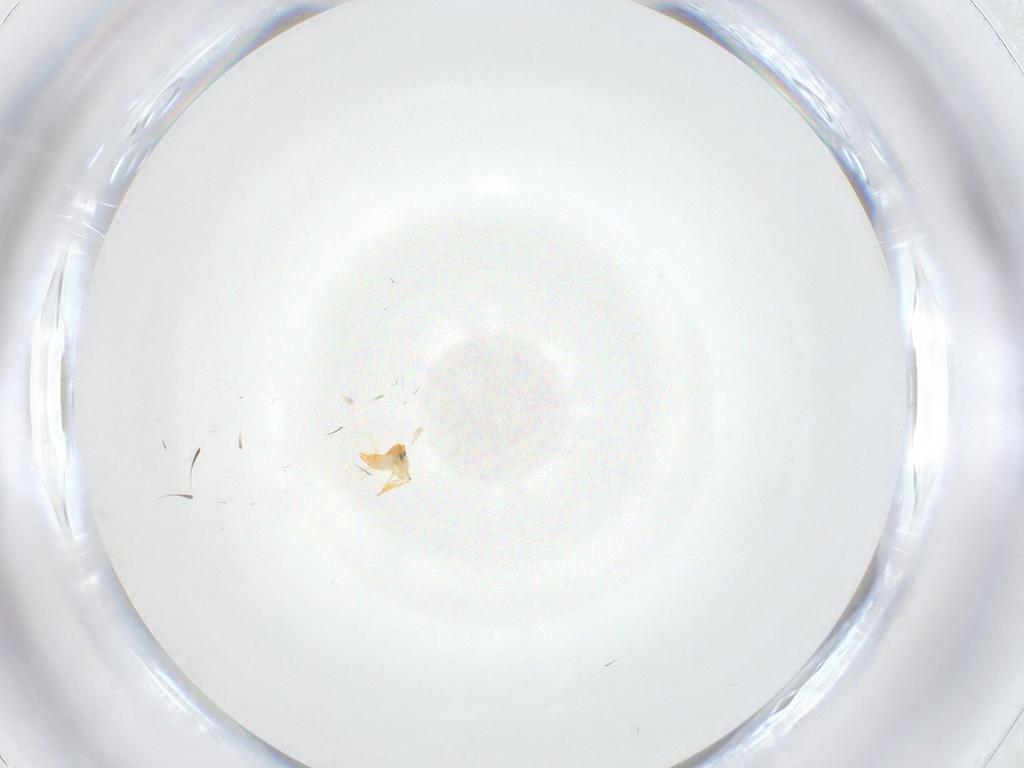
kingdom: Animalia
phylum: Arthropoda
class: Insecta
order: Hemiptera
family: Aleyrodidae
